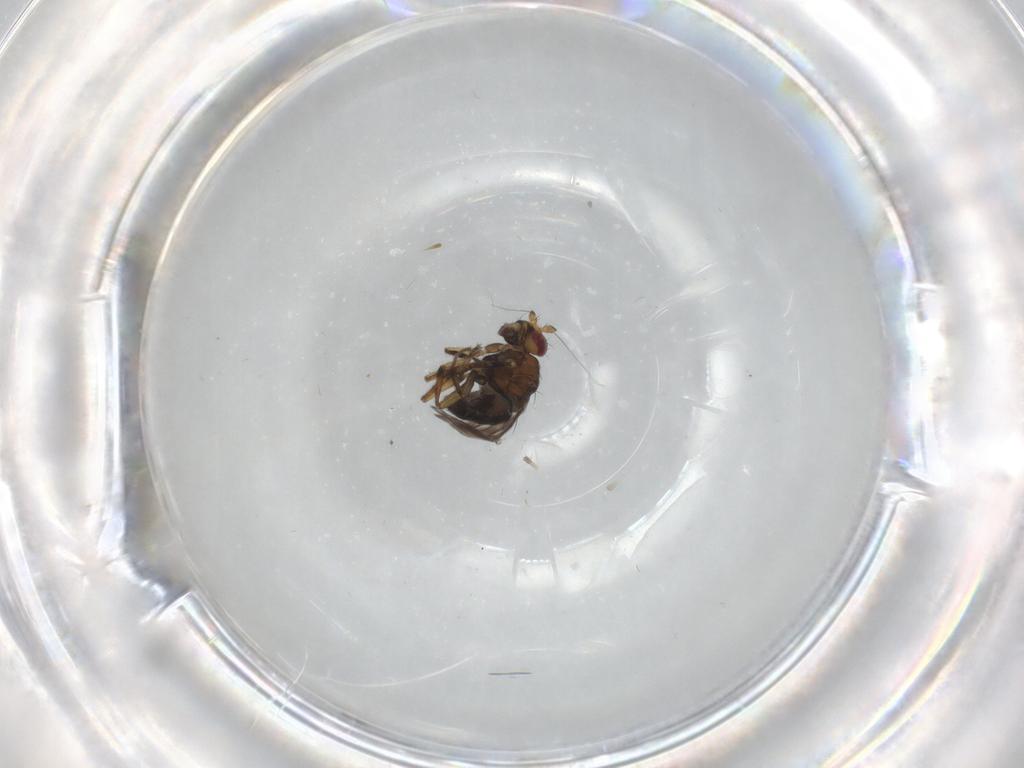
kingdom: Animalia
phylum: Arthropoda
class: Insecta
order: Diptera
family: Sphaeroceridae
